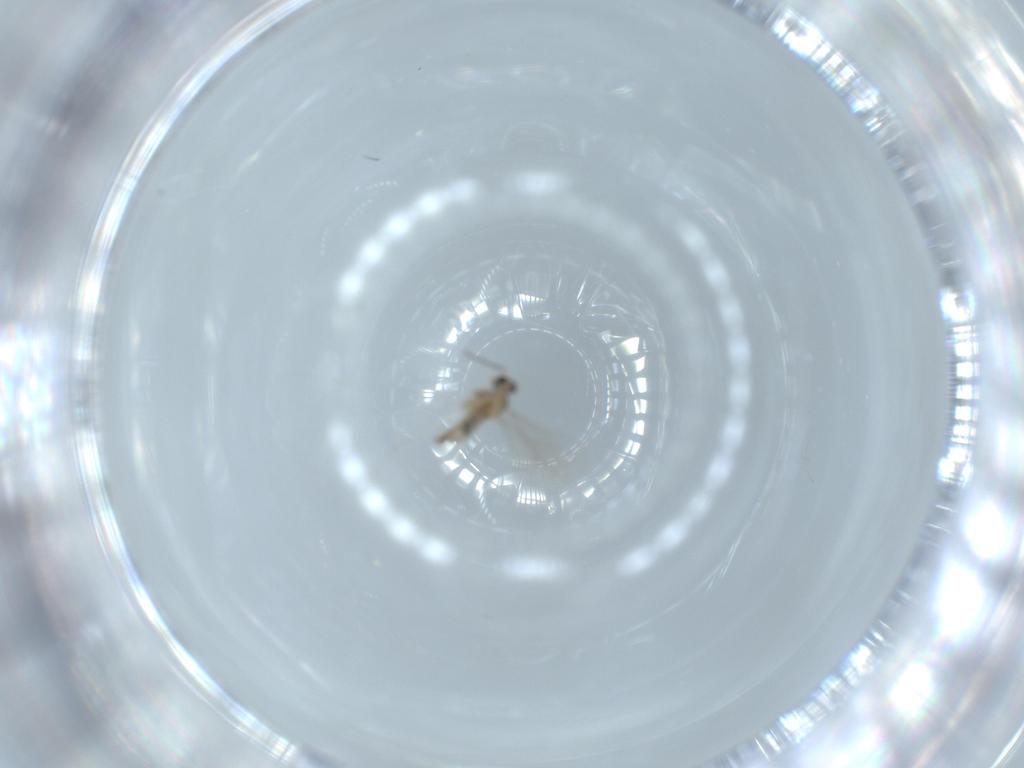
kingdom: Animalia
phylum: Arthropoda
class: Insecta
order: Diptera
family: Cecidomyiidae
